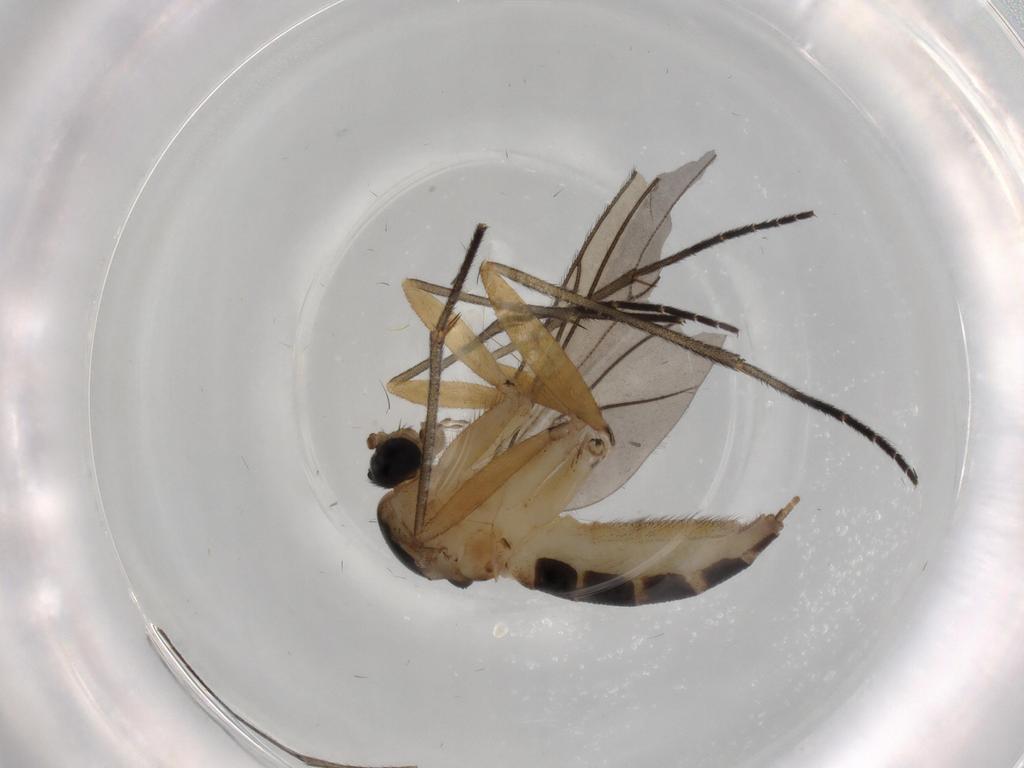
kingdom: Animalia
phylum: Arthropoda
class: Insecta
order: Diptera
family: Sciaridae
